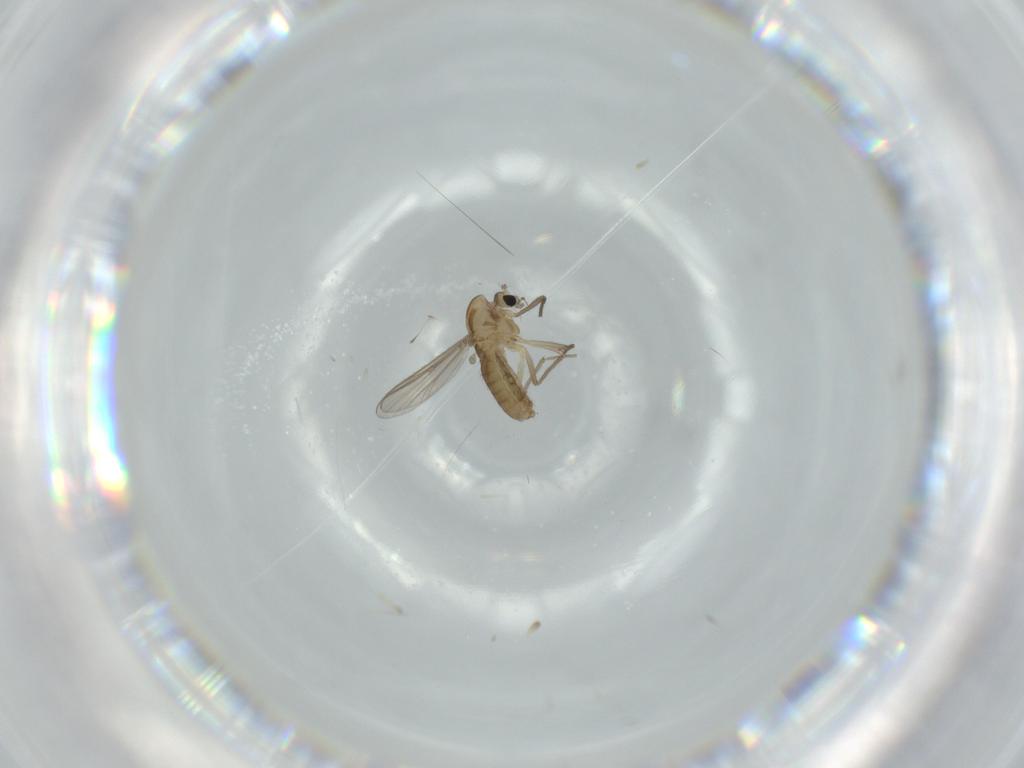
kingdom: Animalia
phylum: Arthropoda
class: Insecta
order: Diptera
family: Chironomidae
